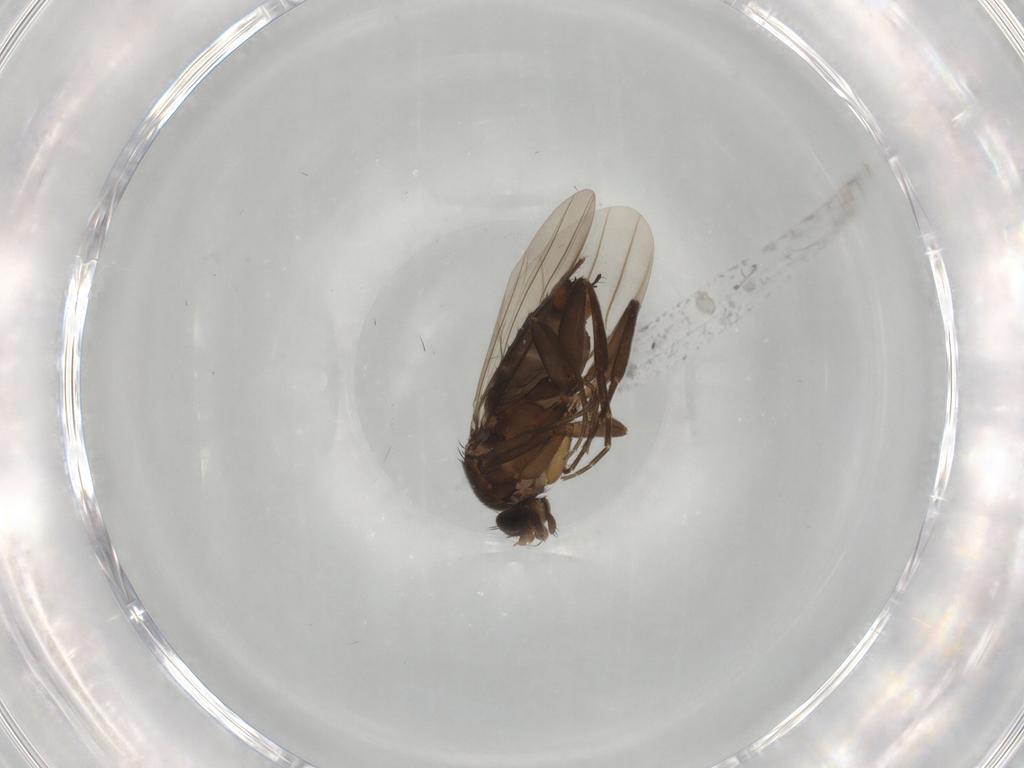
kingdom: Animalia
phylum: Arthropoda
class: Insecta
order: Diptera
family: Cecidomyiidae
